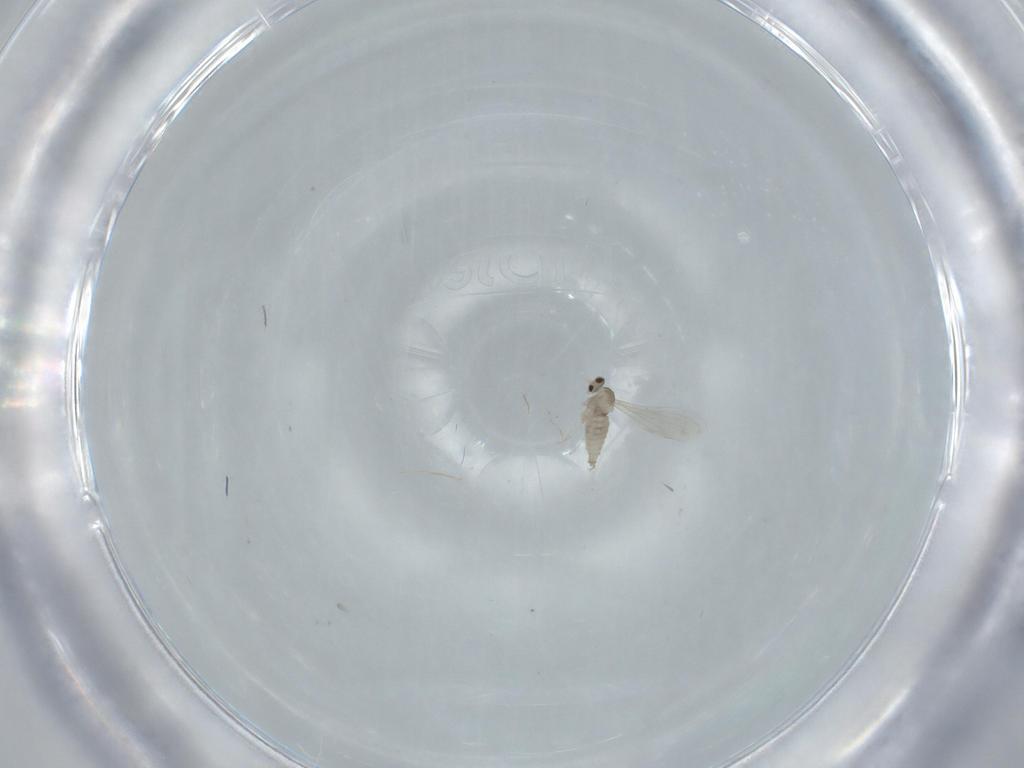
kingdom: Animalia
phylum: Arthropoda
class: Insecta
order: Diptera
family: Cecidomyiidae
